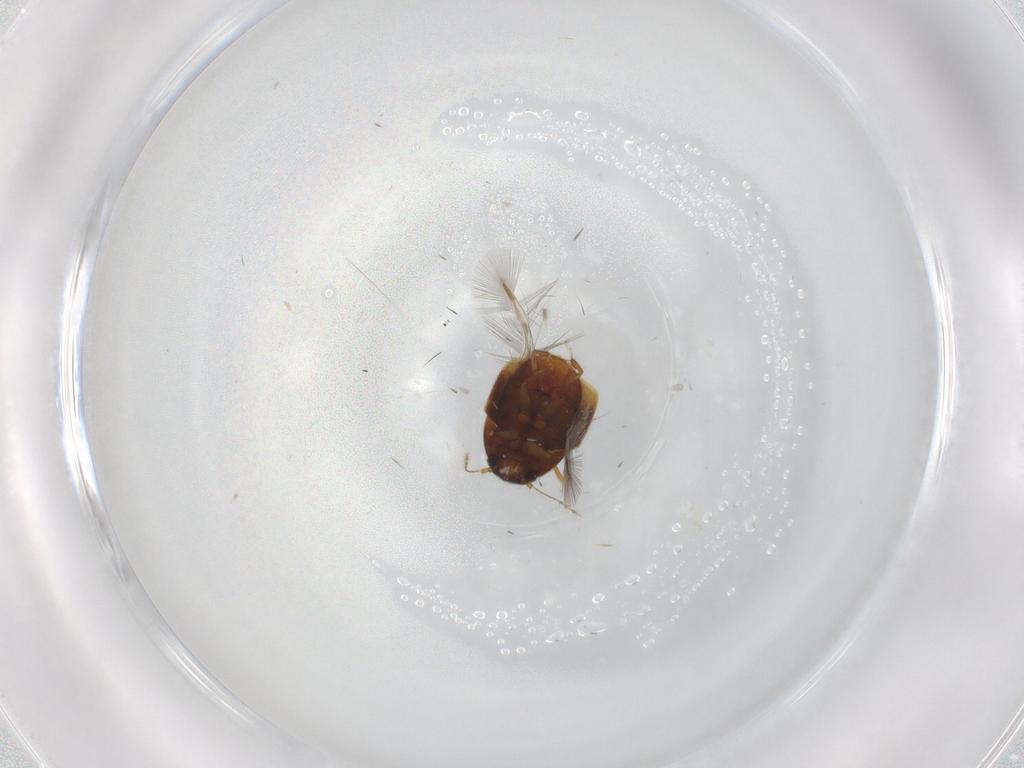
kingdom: Animalia
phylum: Arthropoda
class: Insecta
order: Coleoptera
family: Ptiliidae
